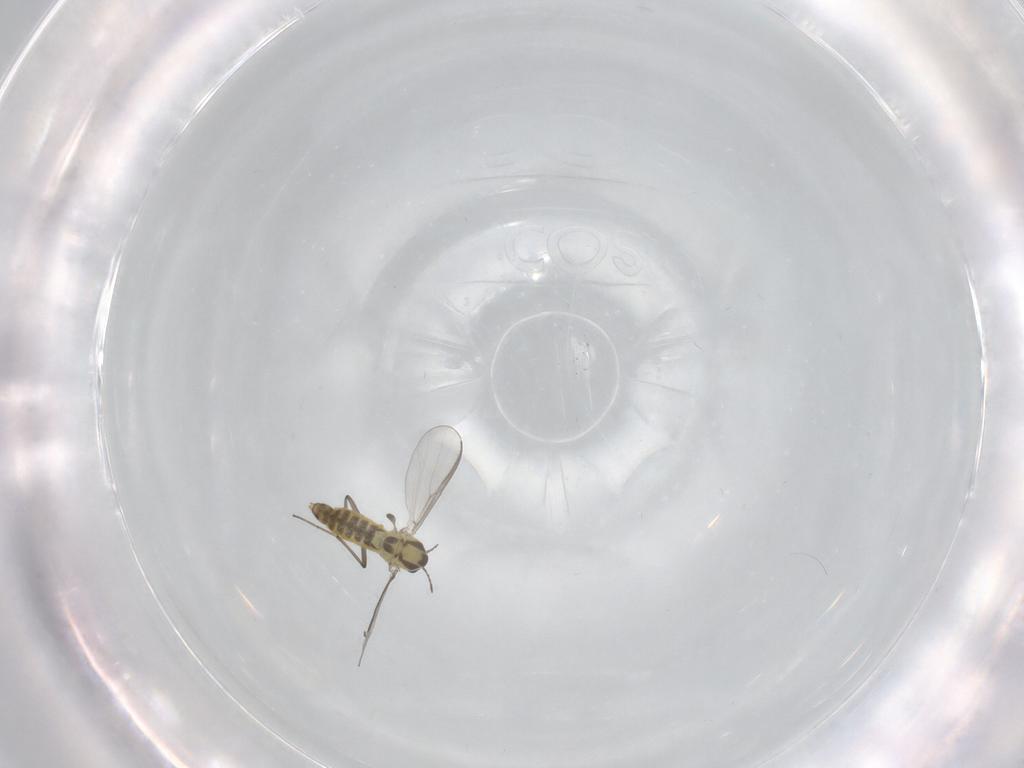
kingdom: Animalia
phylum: Arthropoda
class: Insecta
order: Diptera
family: Chironomidae
